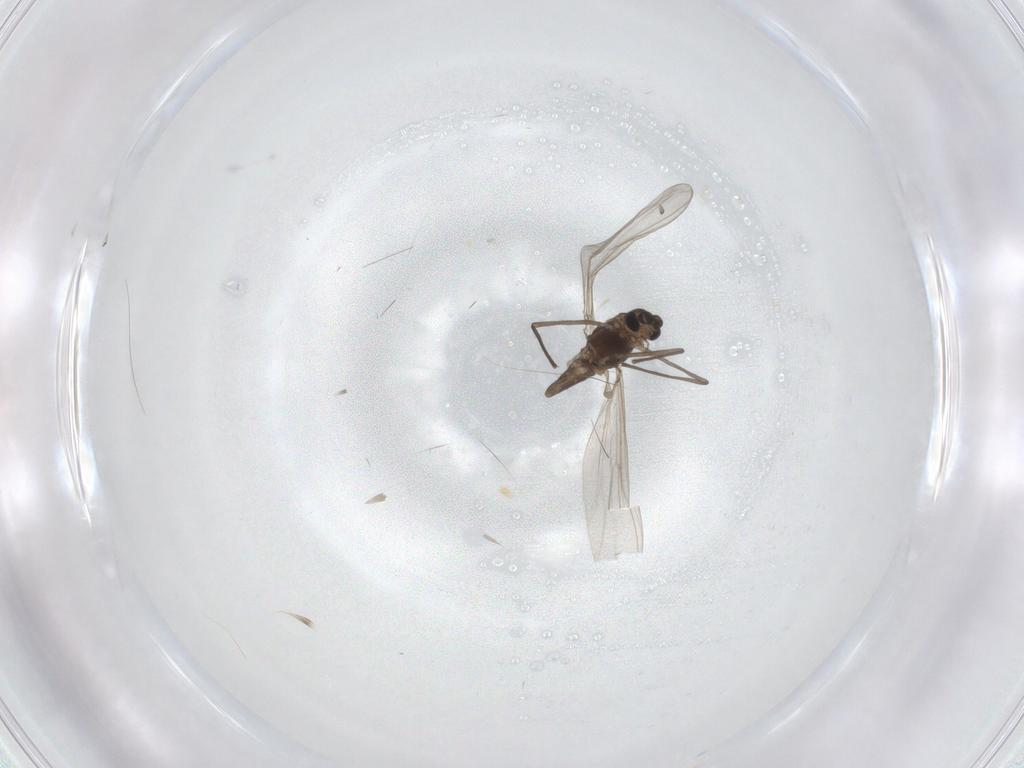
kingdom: Animalia
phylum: Arthropoda
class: Insecta
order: Diptera
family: Chironomidae
